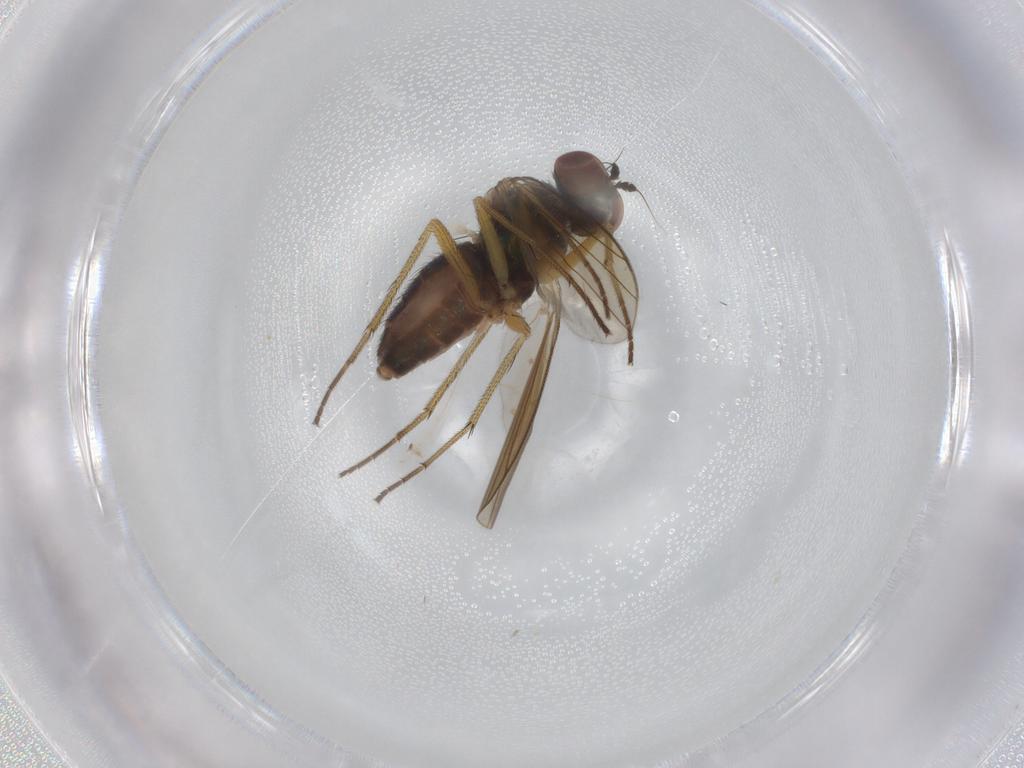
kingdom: Animalia
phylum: Arthropoda
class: Insecta
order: Diptera
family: Dolichopodidae
